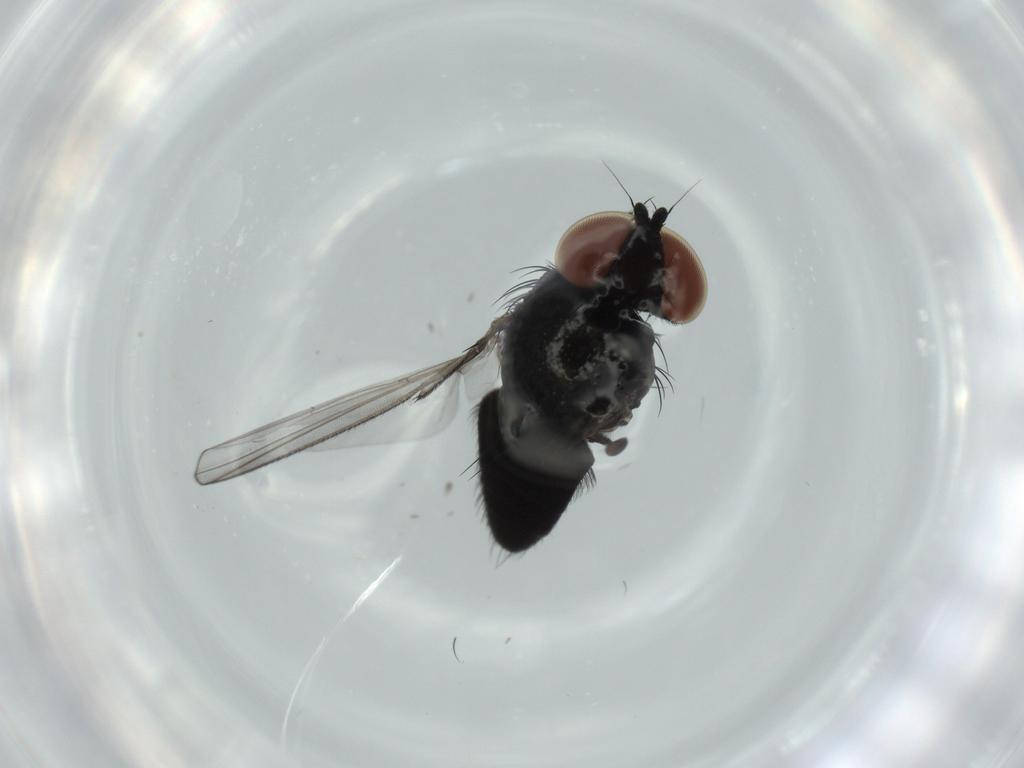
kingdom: Animalia
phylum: Arthropoda
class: Insecta
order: Diptera
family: Milichiidae
